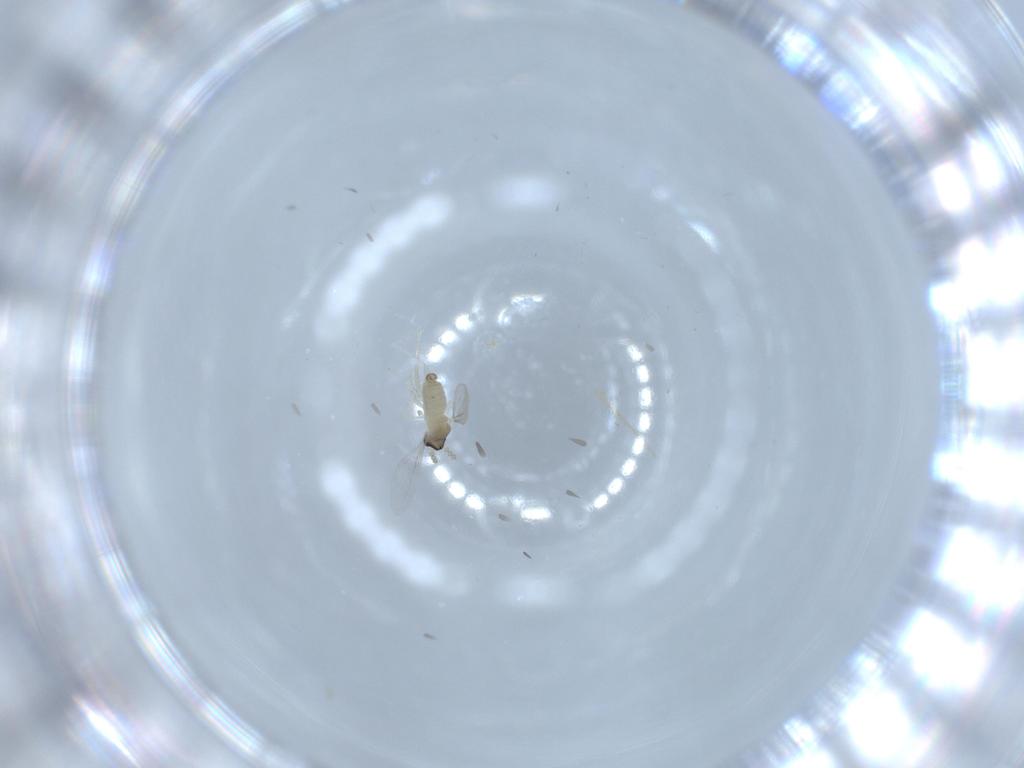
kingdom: Animalia
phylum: Arthropoda
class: Insecta
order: Diptera
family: Dolichopodidae
